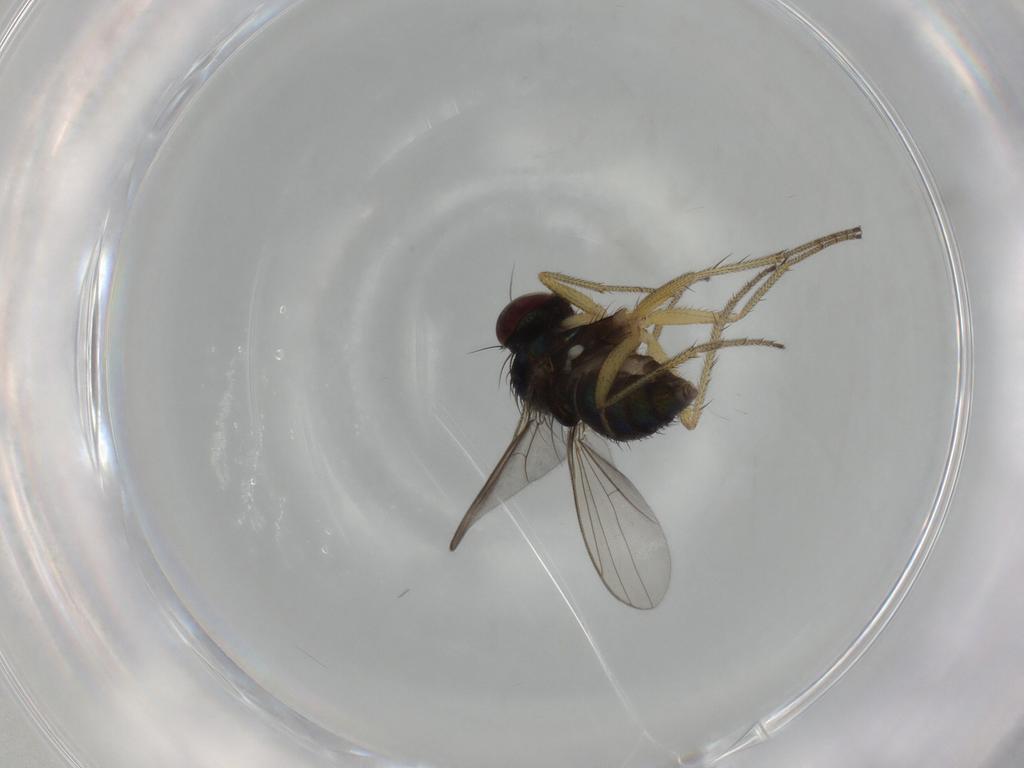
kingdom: Animalia
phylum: Arthropoda
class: Insecta
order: Diptera
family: Dolichopodidae
